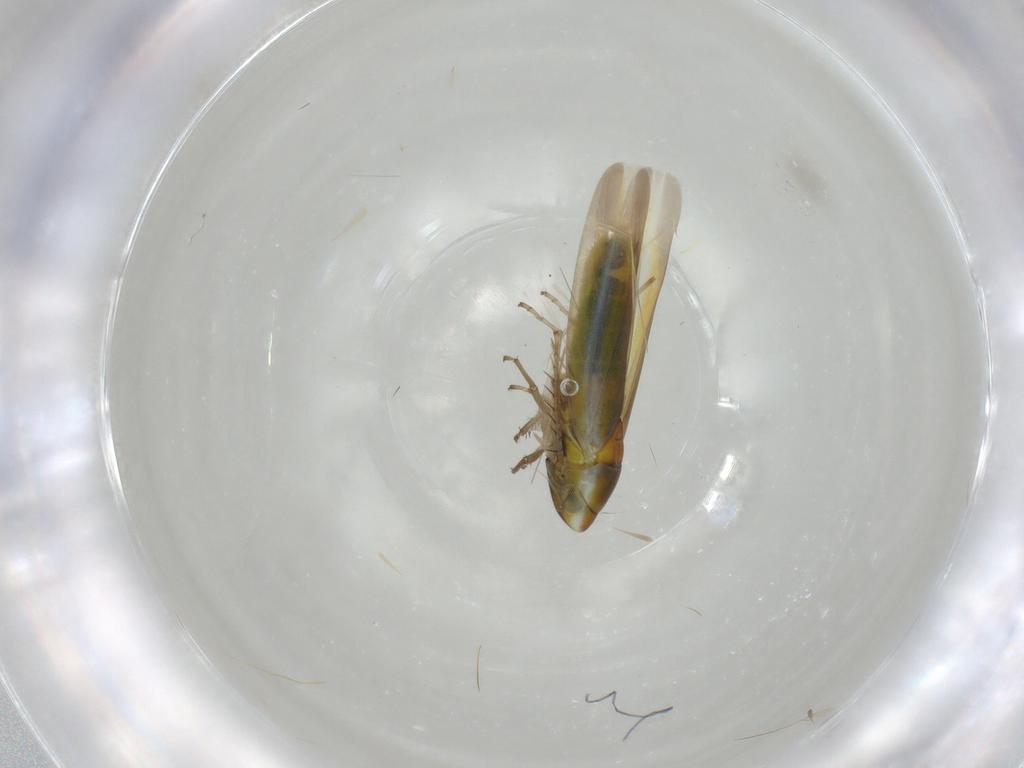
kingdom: Animalia
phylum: Arthropoda
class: Insecta
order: Hemiptera
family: Cicadellidae
